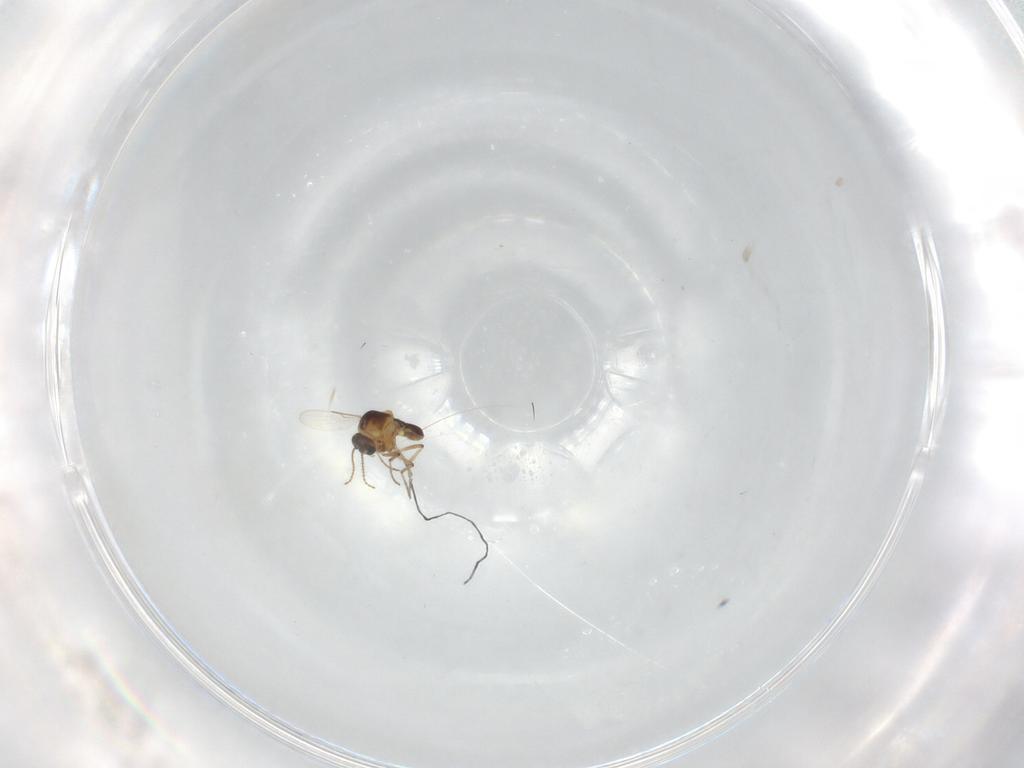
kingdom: Animalia
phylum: Arthropoda
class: Insecta
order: Diptera
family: Ceratopogonidae
